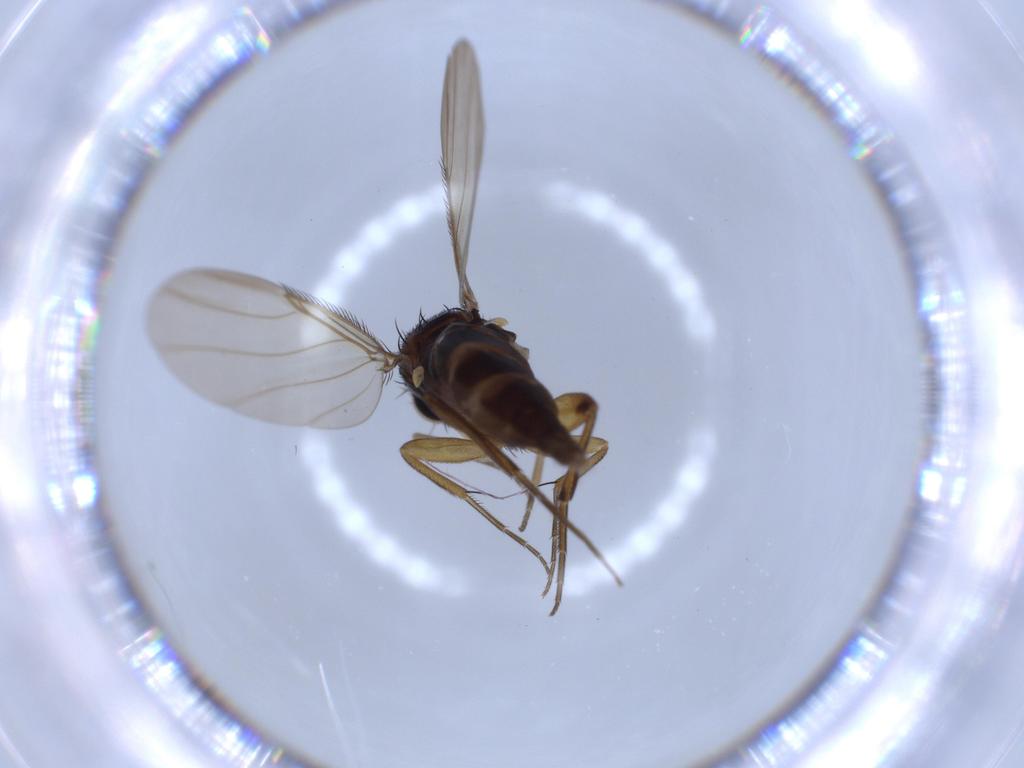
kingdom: Animalia
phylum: Arthropoda
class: Insecta
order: Diptera
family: Phoridae
